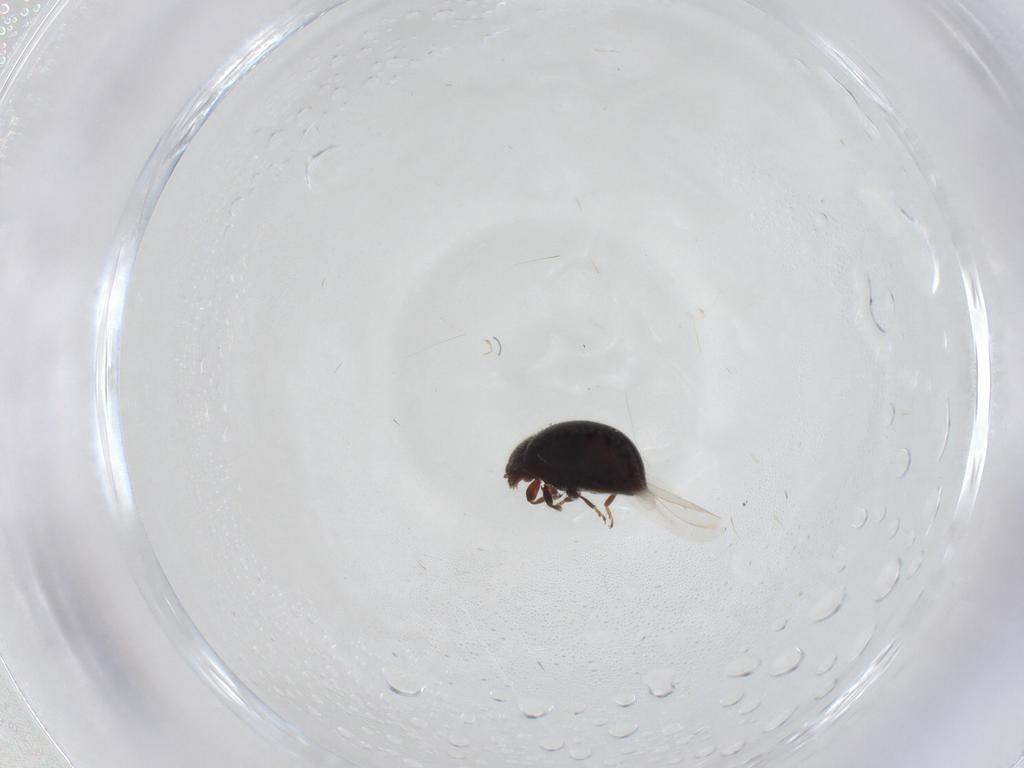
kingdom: Animalia
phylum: Arthropoda
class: Insecta
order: Coleoptera
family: Coccinellidae
